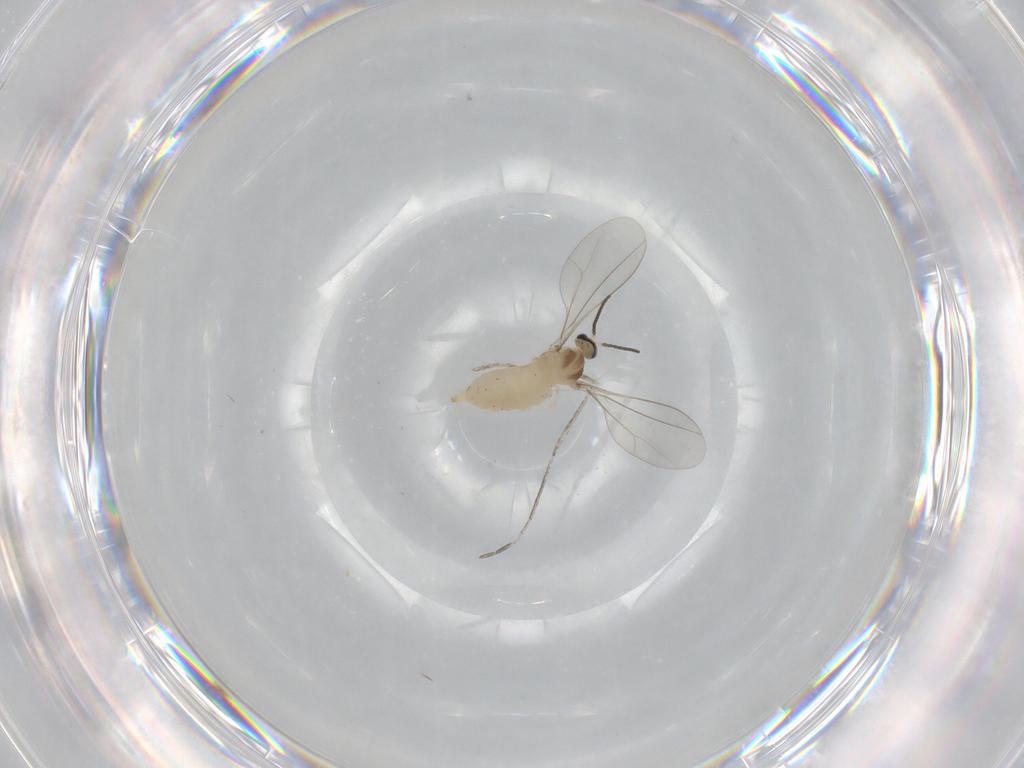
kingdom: Animalia
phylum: Arthropoda
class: Insecta
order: Diptera
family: Cecidomyiidae
